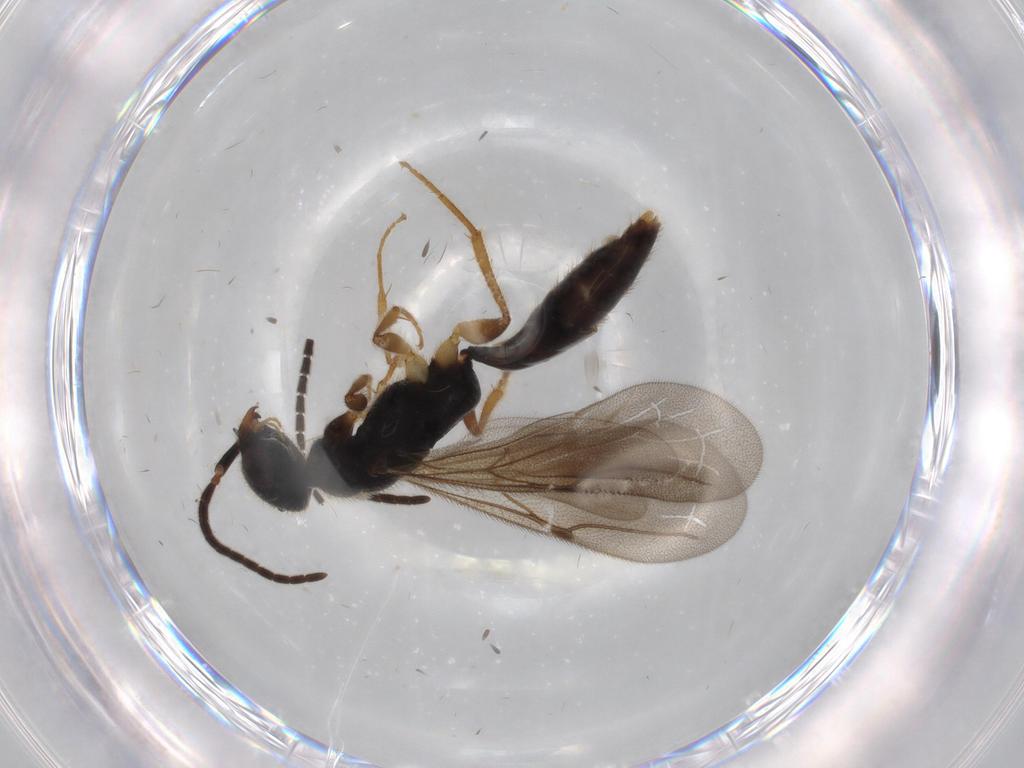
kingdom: Animalia
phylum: Arthropoda
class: Insecta
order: Hymenoptera
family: Bethylidae
